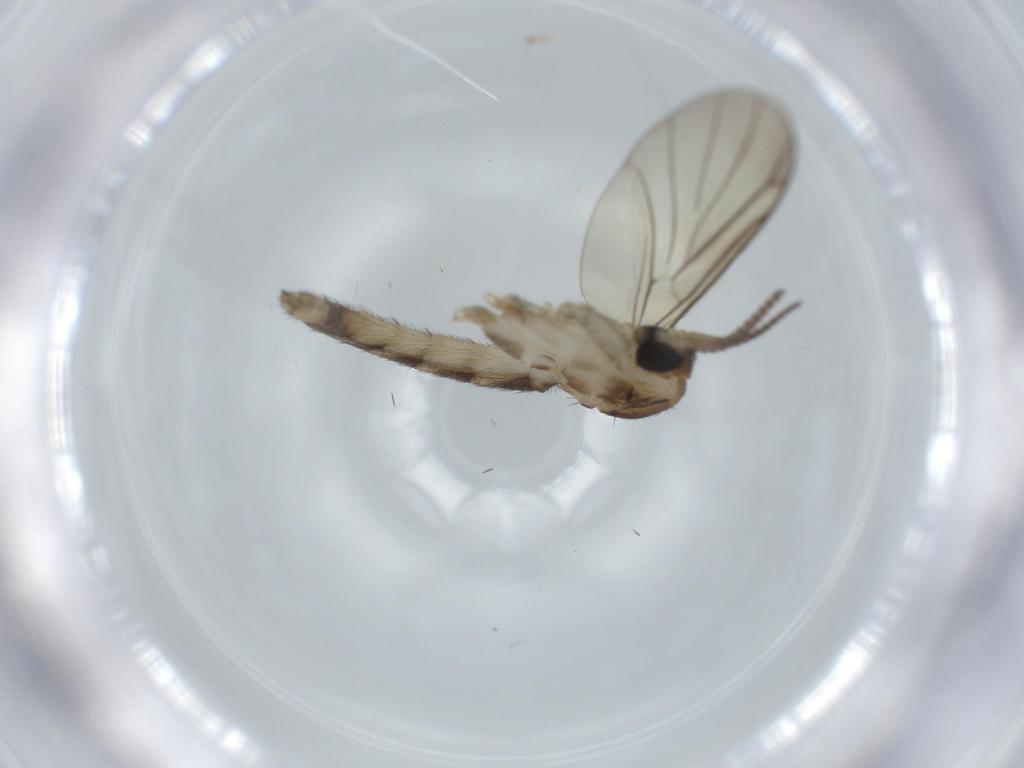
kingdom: Animalia
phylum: Arthropoda
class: Insecta
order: Diptera
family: Cecidomyiidae
